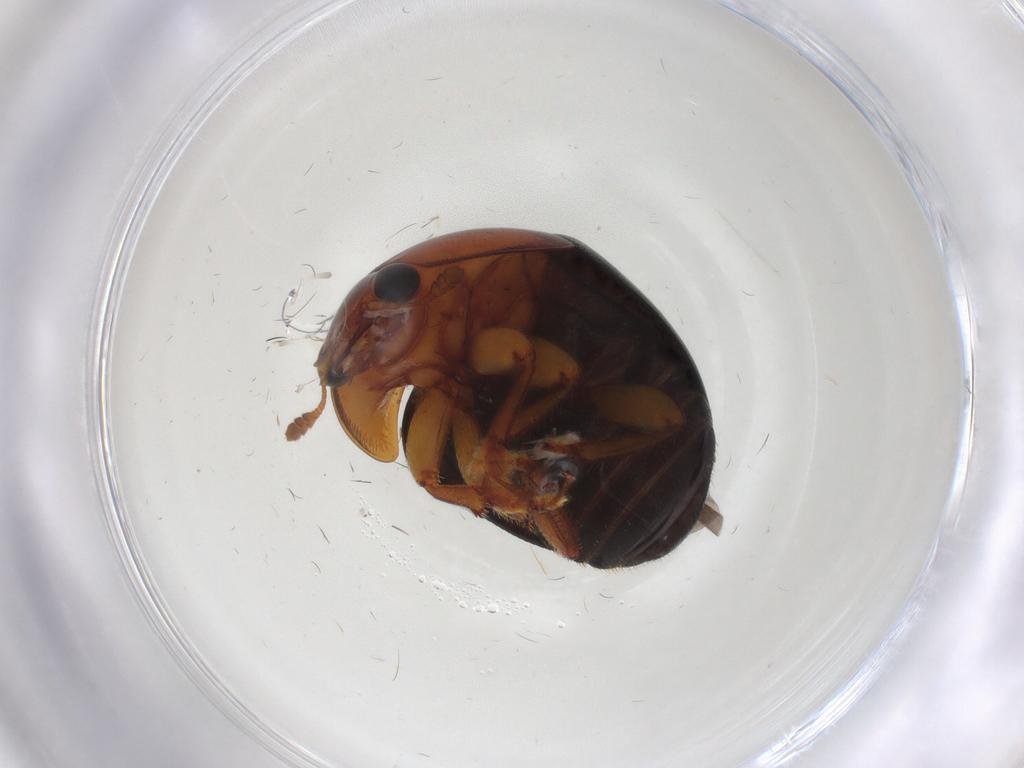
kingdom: Animalia
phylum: Arthropoda
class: Insecta
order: Coleoptera
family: Nitidulidae
